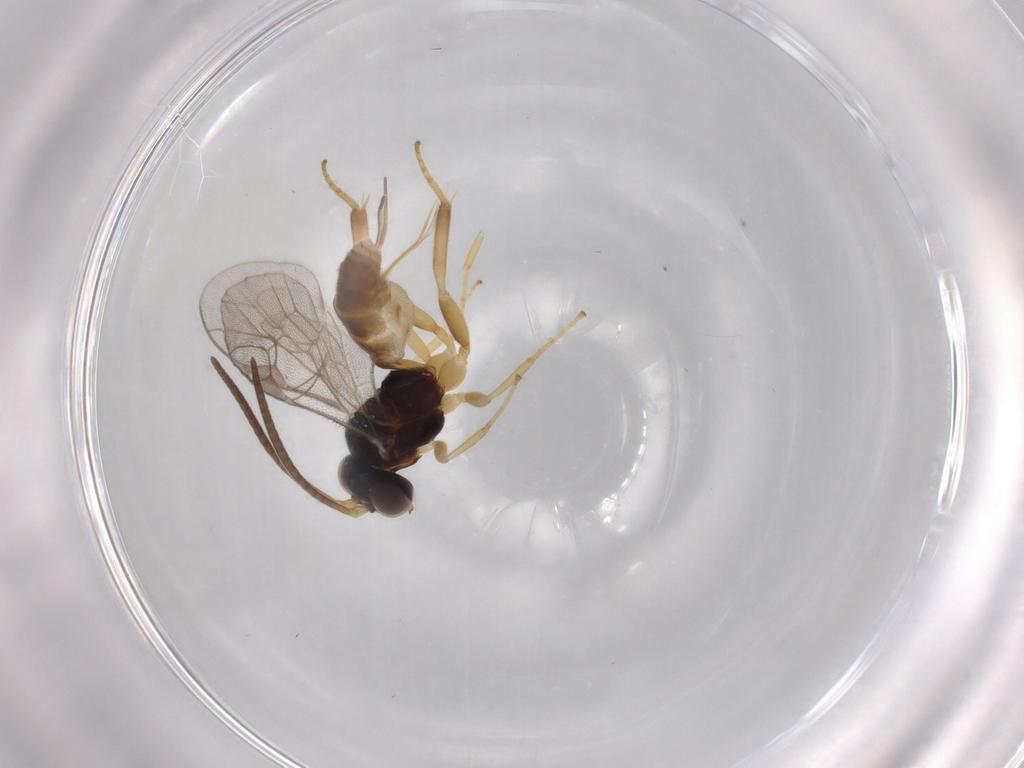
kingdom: Animalia
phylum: Arthropoda
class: Insecta
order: Hymenoptera
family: Ichneumonidae
